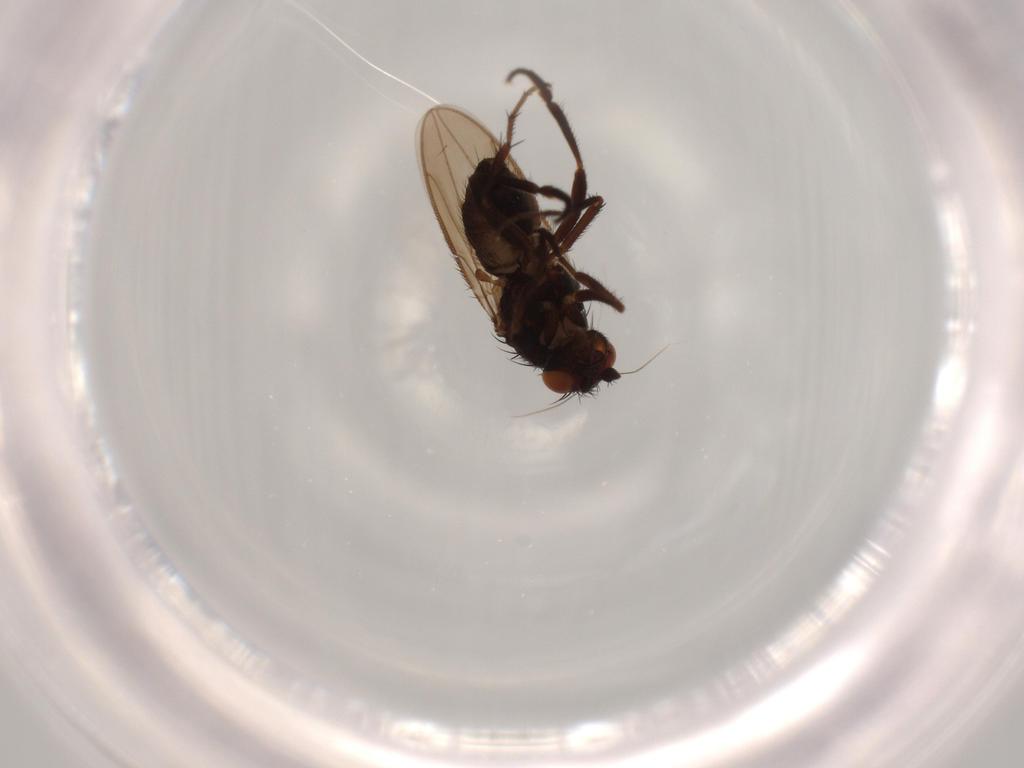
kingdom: Animalia
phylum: Arthropoda
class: Insecta
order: Diptera
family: Sphaeroceridae
